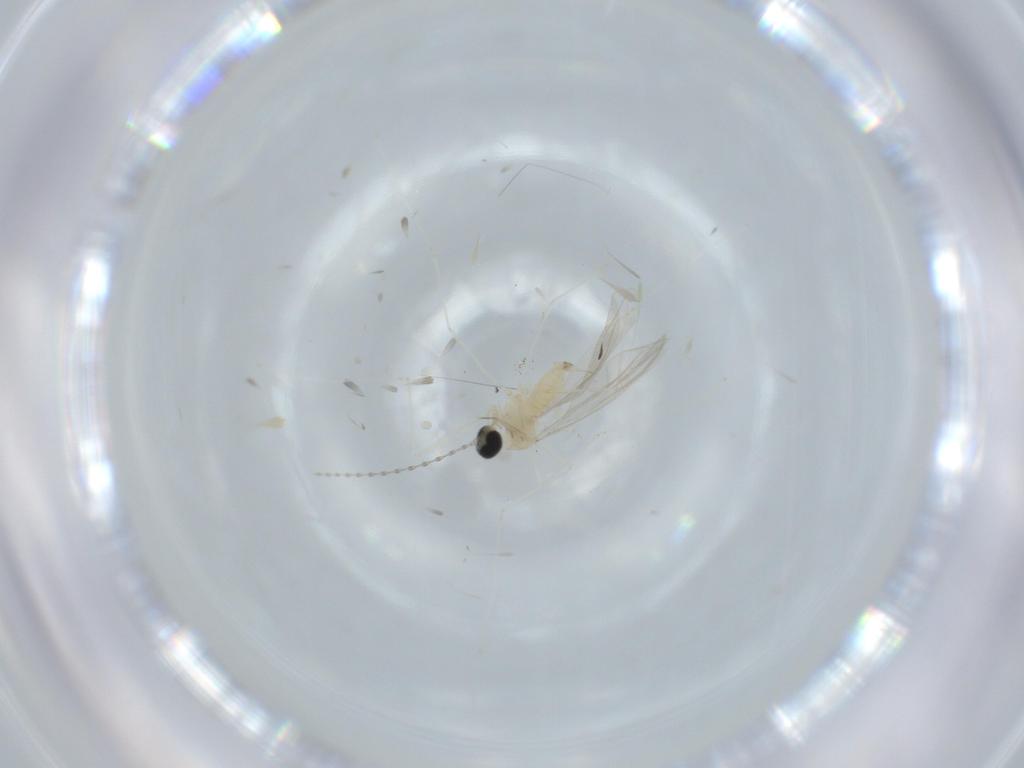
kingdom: Animalia
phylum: Arthropoda
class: Insecta
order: Diptera
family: Cecidomyiidae
